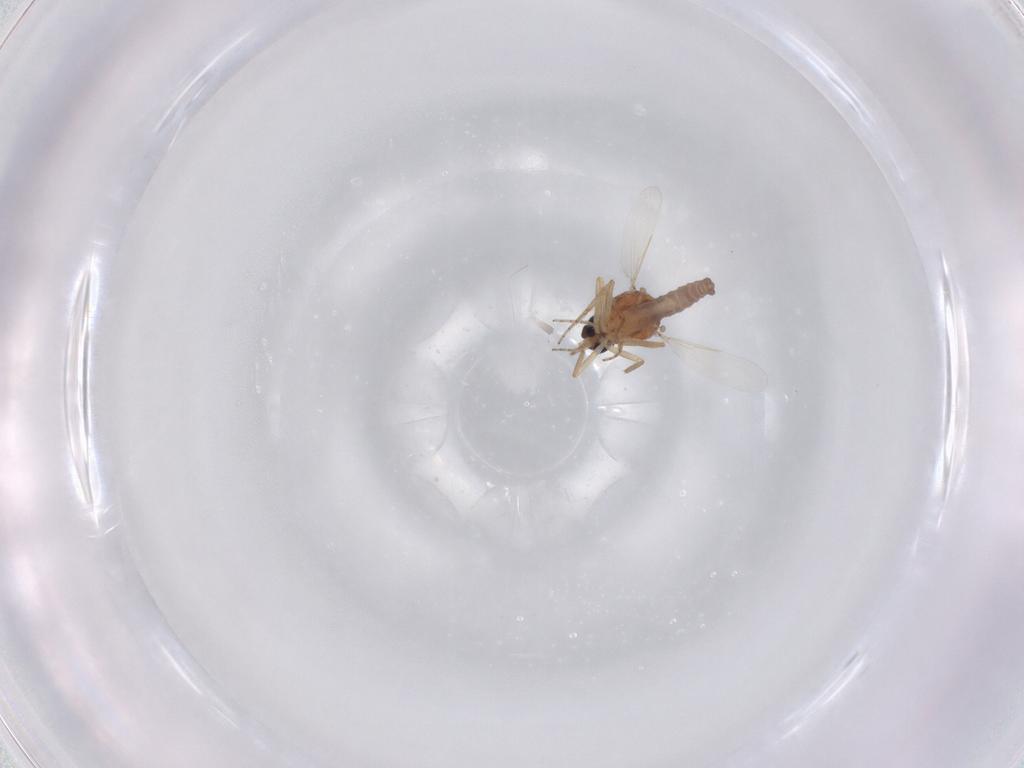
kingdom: Animalia
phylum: Arthropoda
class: Insecta
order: Diptera
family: Ceratopogonidae
